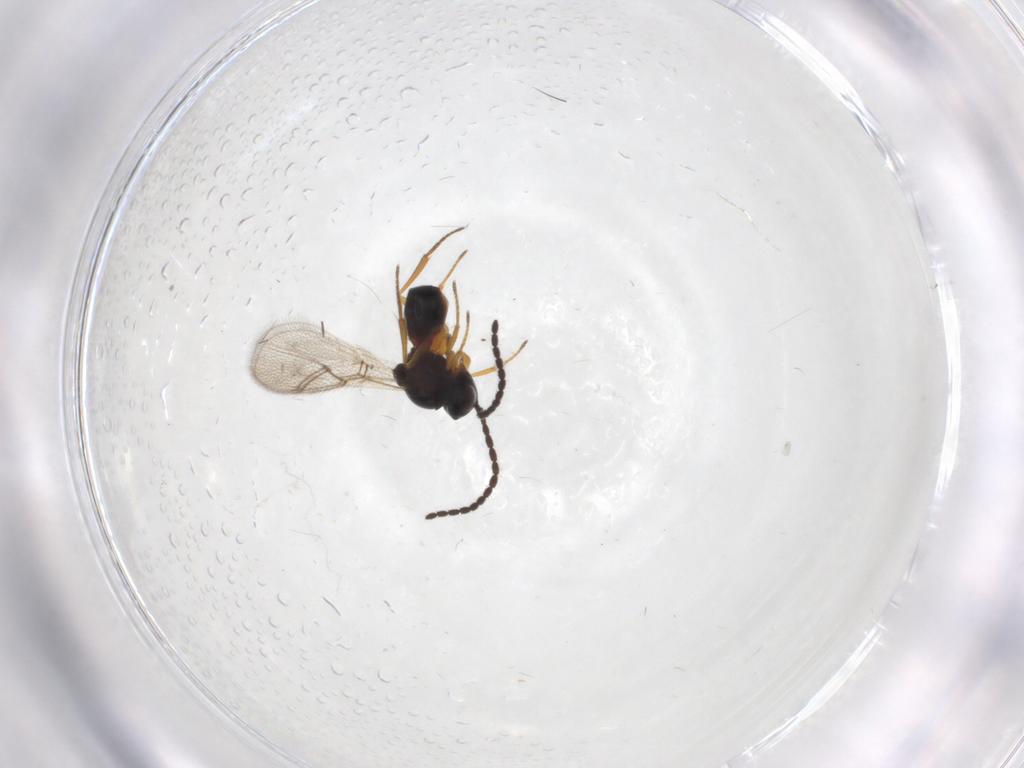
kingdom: Animalia
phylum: Arthropoda
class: Insecta
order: Hymenoptera
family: Figitidae
